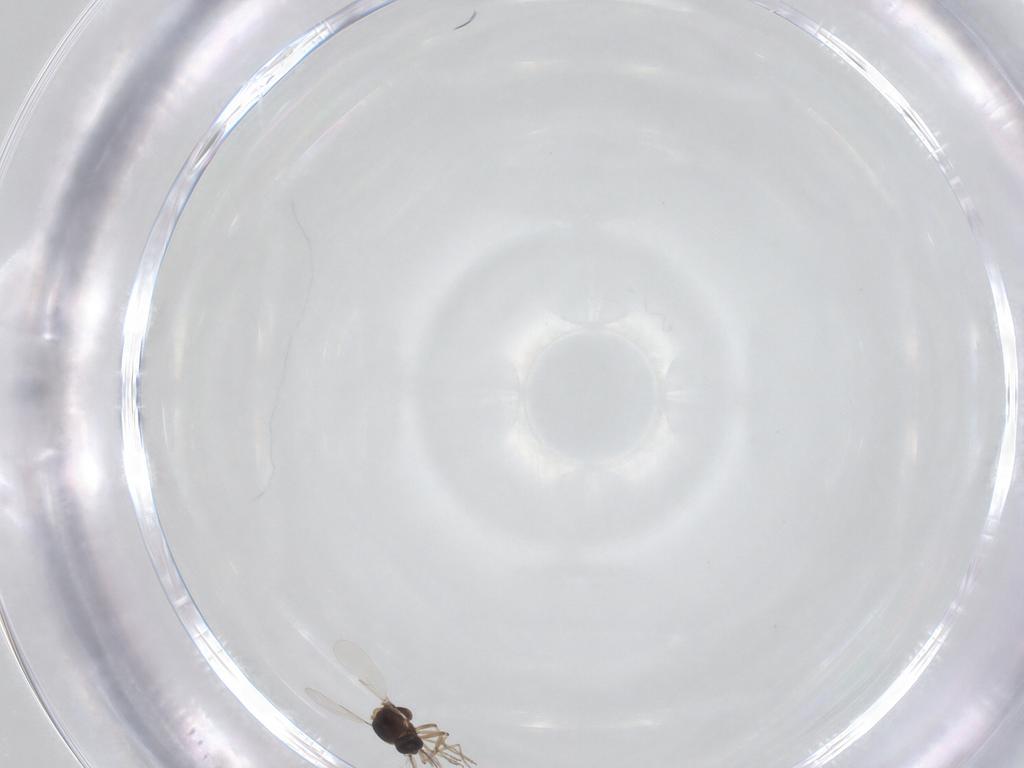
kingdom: Animalia
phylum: Arthropoda
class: Insecta
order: Diptera
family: Ceratopogonidae
